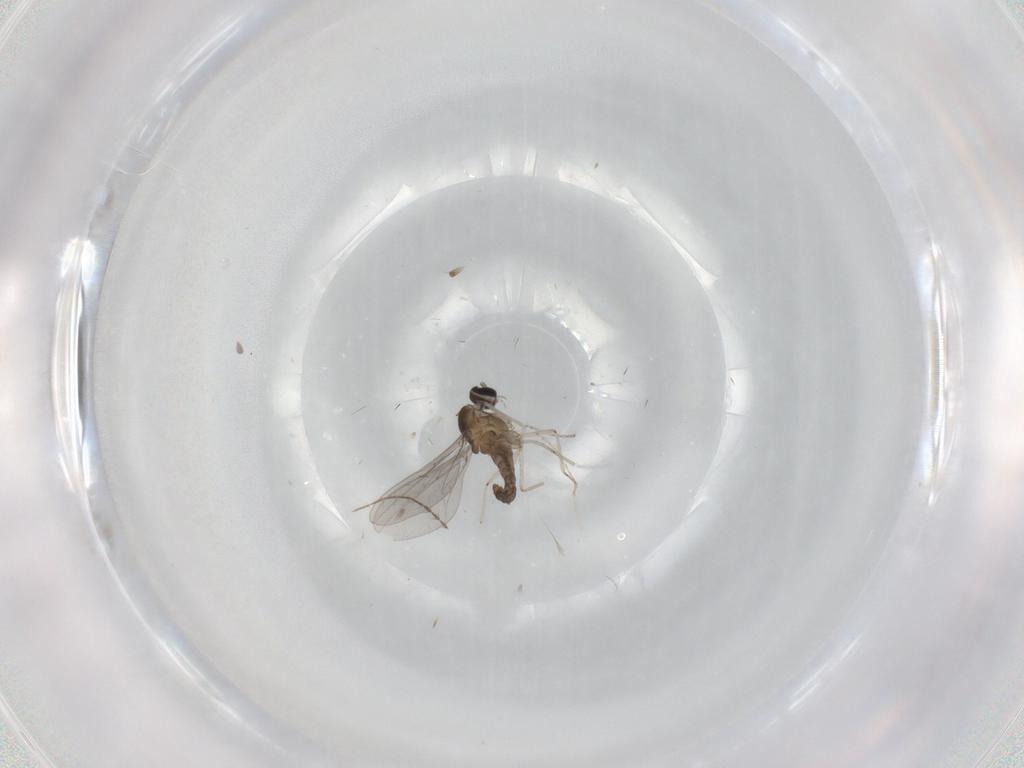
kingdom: Animalia
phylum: Arthropoda
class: Insecta
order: Diptera
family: Cecidomyiidae
